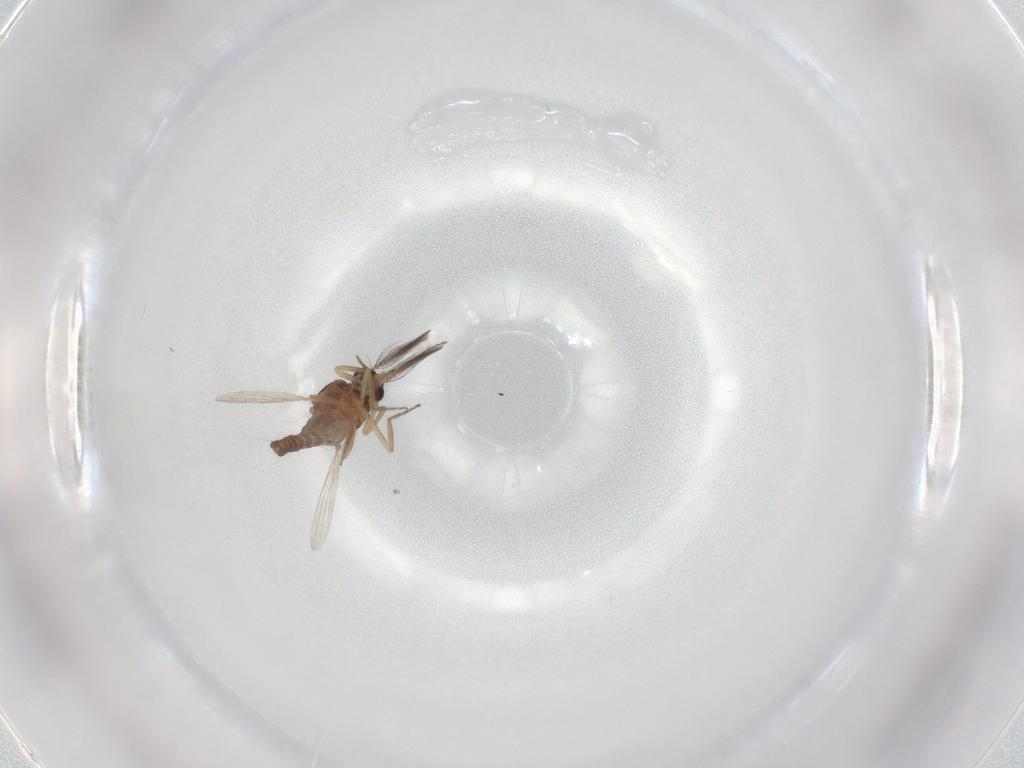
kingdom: Animalia
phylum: Arthropoda
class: Insecta
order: Diptera
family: Ceratopogonidae
